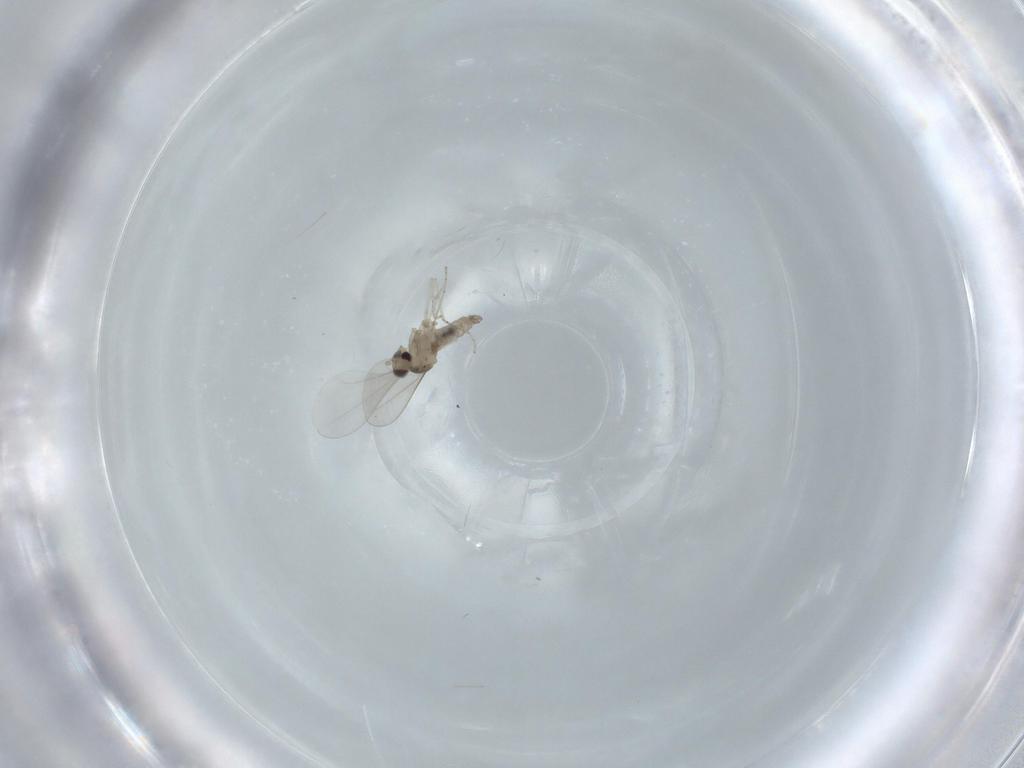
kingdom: Animalia
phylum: Arthropoda
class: Insecta
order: Diptera
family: Cecidomyiidae
